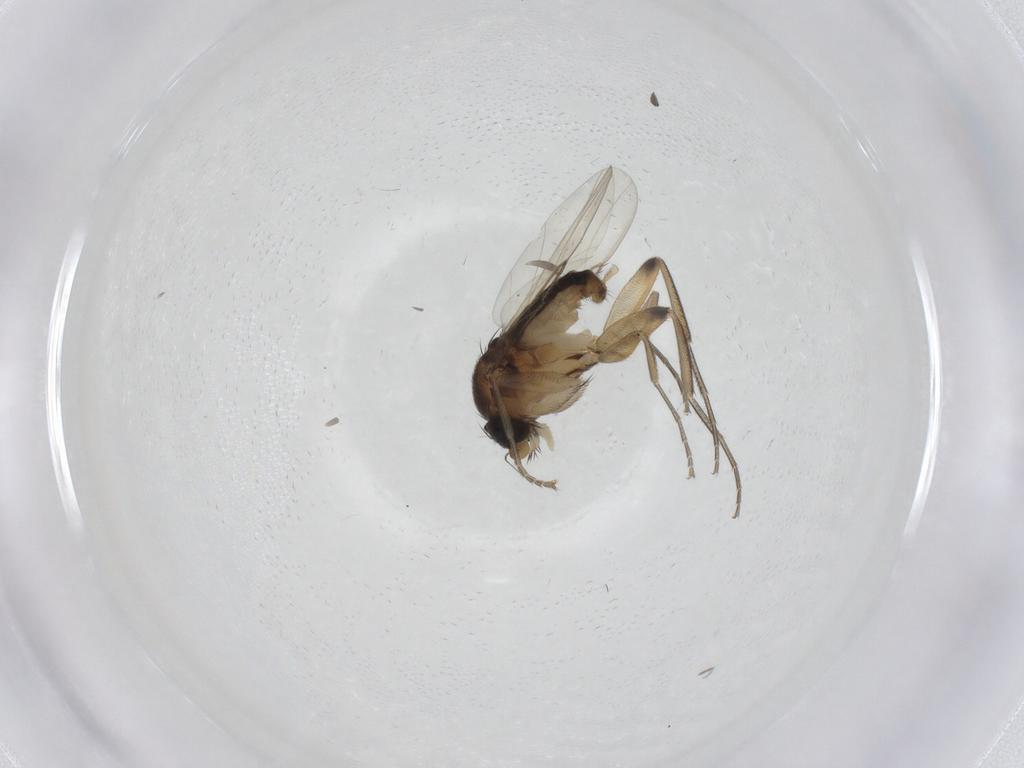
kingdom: Animalia
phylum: Arthropoda
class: Insecta
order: Diptera
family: Phoridae
